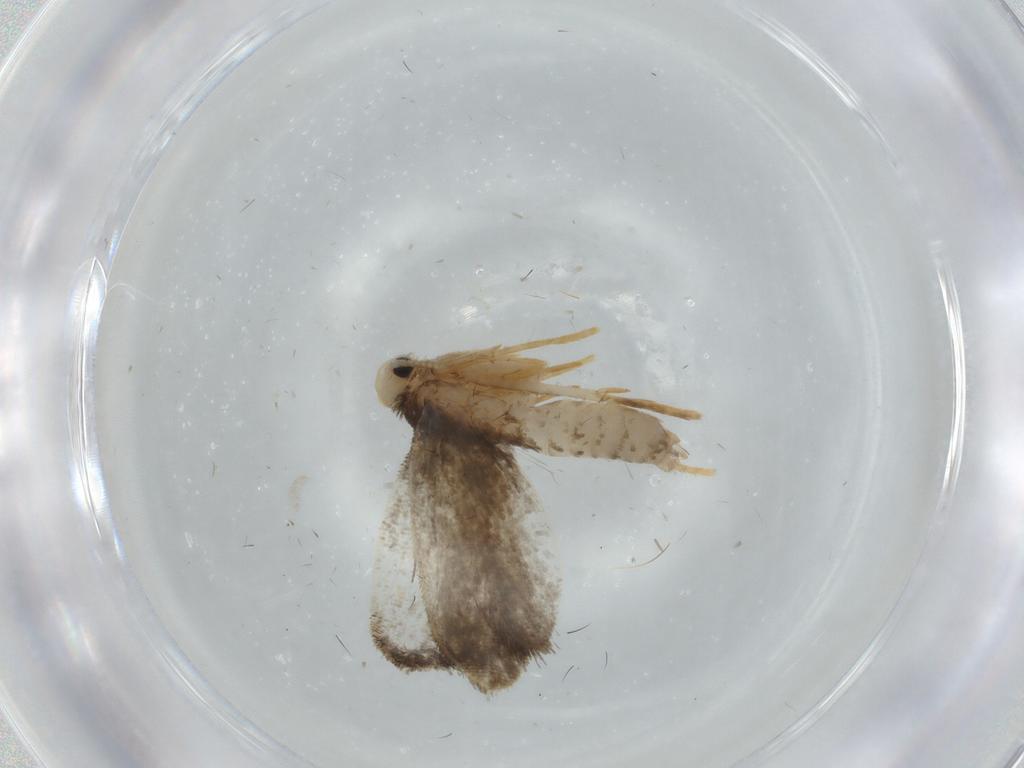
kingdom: Animalia
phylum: Arthropoda
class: Insecta
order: Lepidoptera
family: Psychidae
